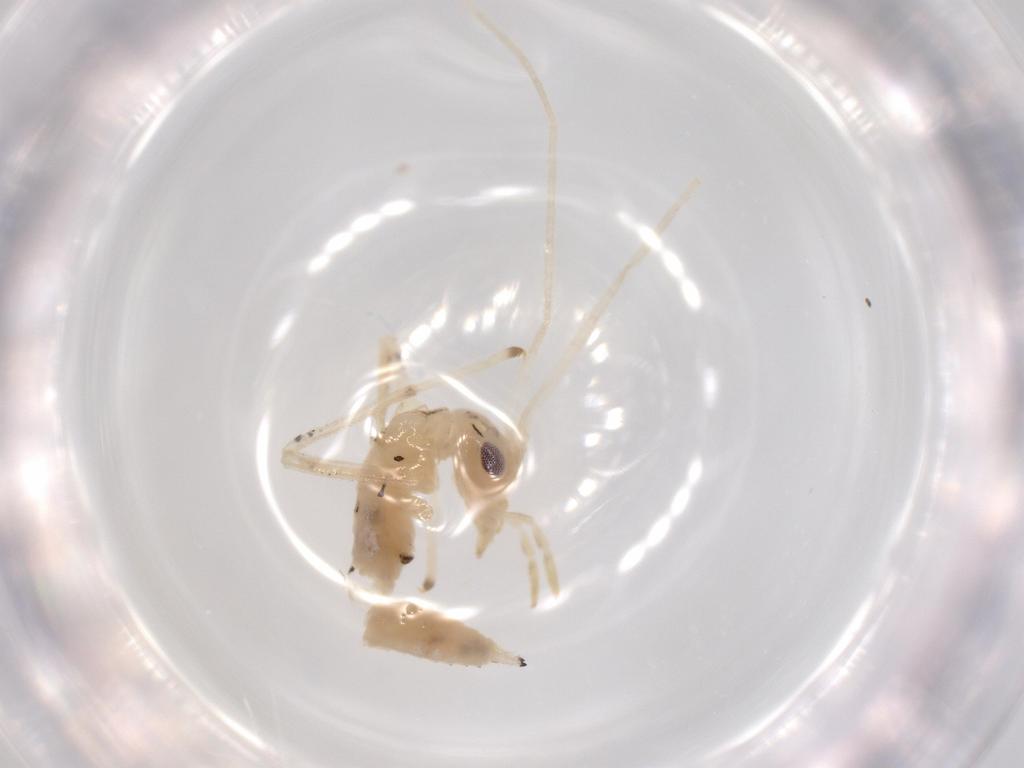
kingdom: Animalia
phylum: Arthropoda
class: Insecta
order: Orthoptera
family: Oecanthidae
